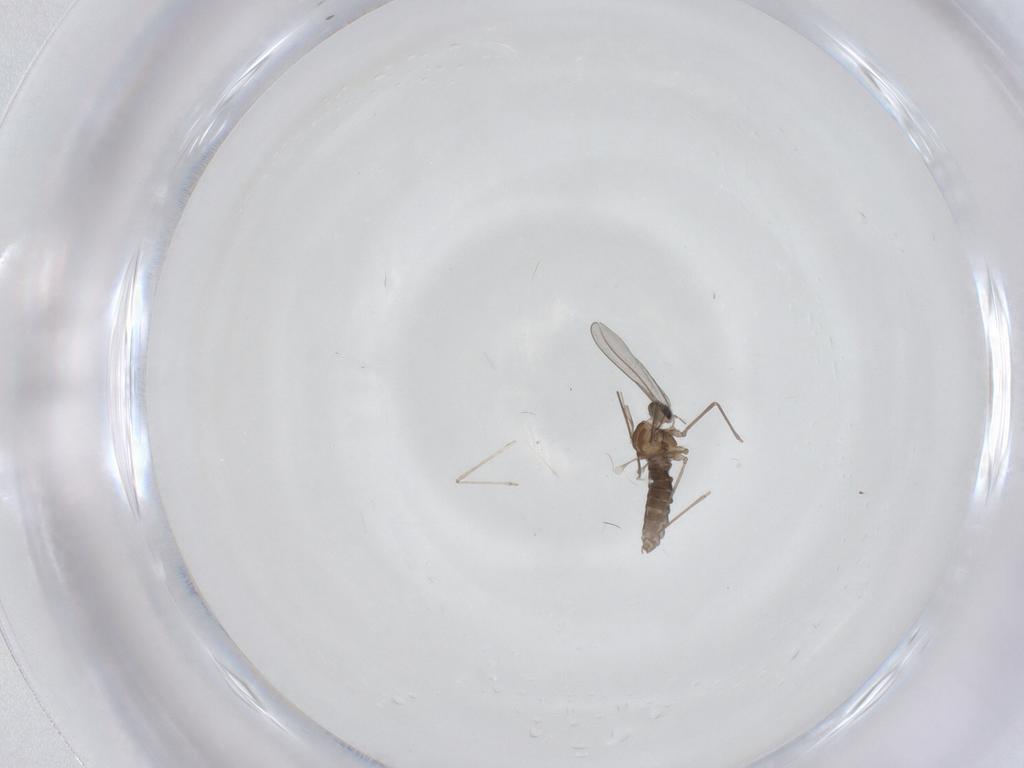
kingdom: Animalia
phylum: Arthropoda
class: Insecta
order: Diptera
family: Cecidomyiidae
